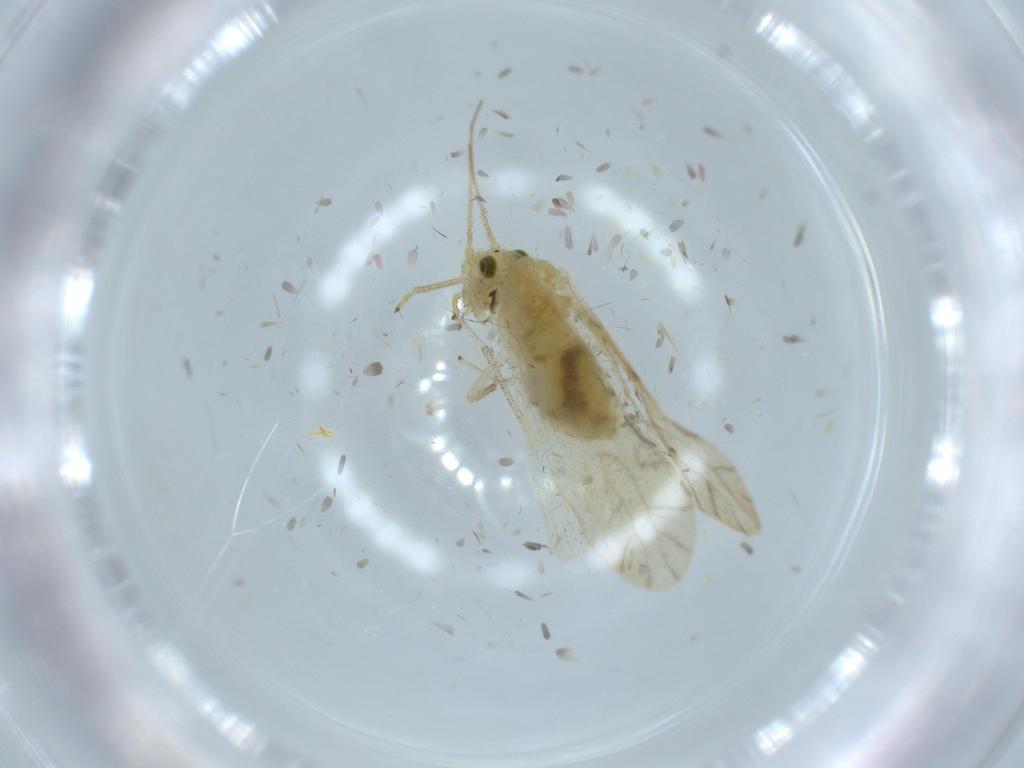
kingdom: Animalia
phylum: Arthropoda
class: Insecta
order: Psocodea
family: Caeciliusidae
